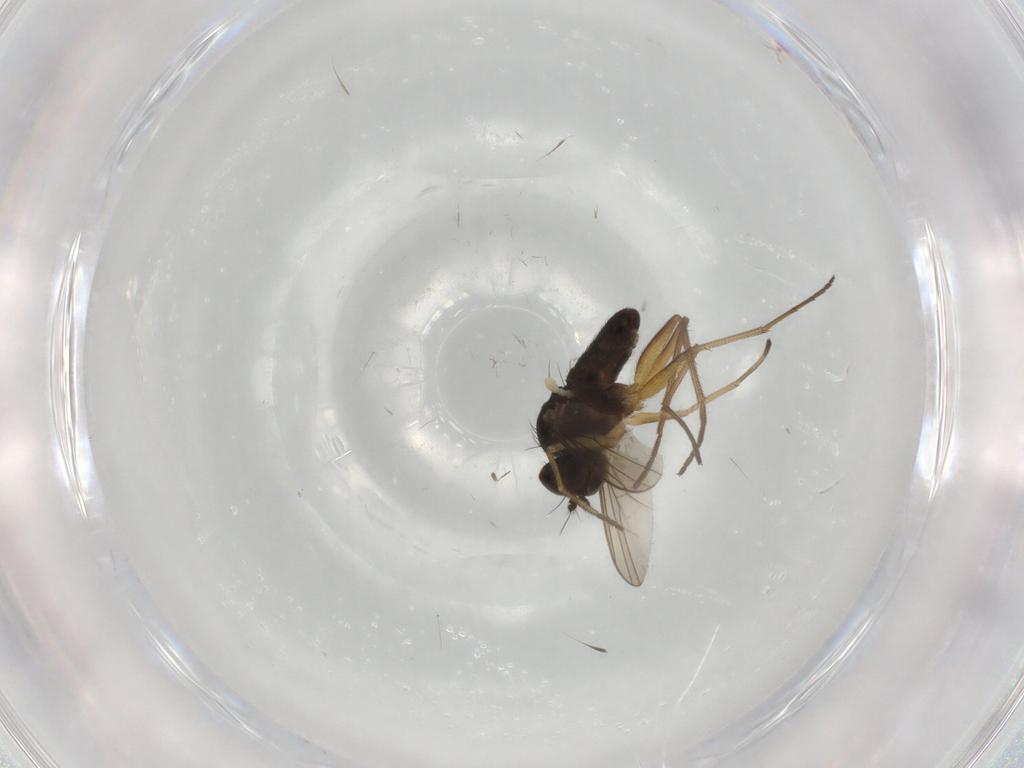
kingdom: Animalia
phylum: Arthropoda
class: Insecta
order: Diptera
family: Dolichopodidae
